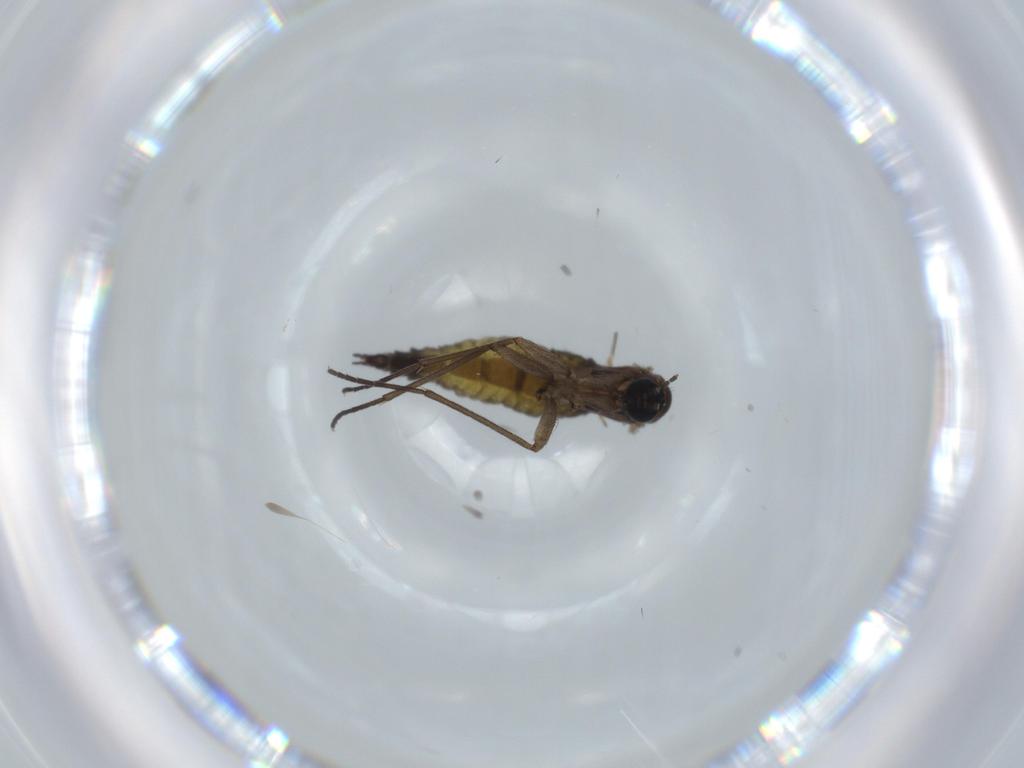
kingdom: Animalia
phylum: Arthropoda
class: Insecta
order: Diptera
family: Sciaridae
